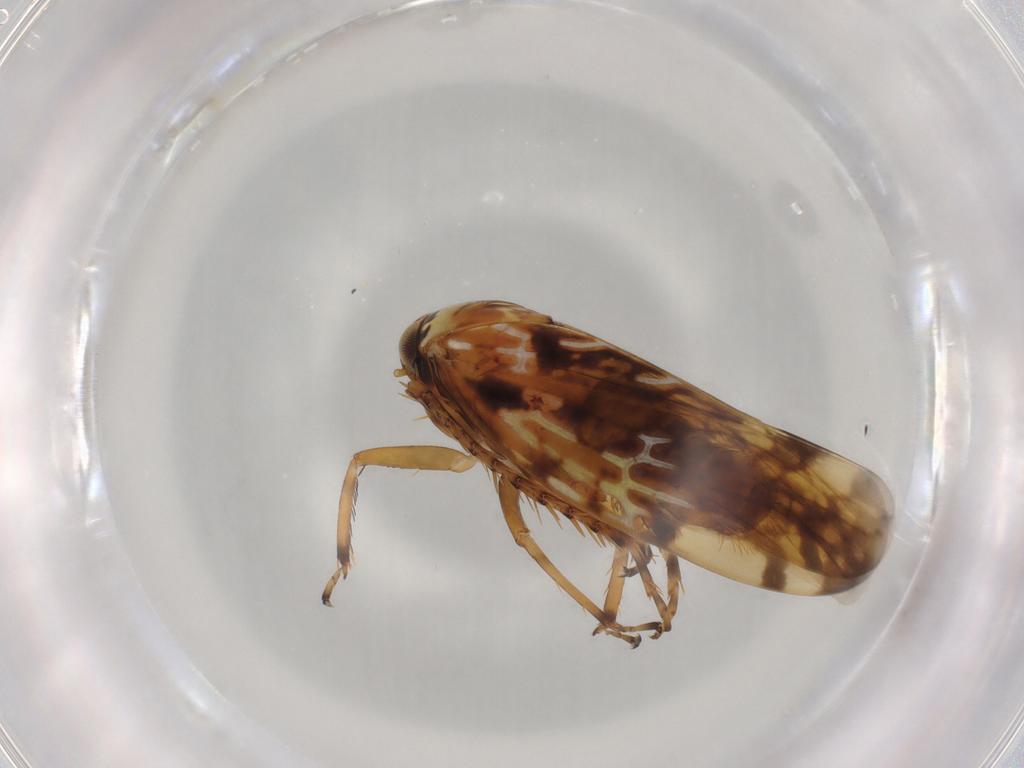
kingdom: Animalia
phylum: Arthropoda
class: Insecta
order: Hemiptera
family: Cicadellidae
